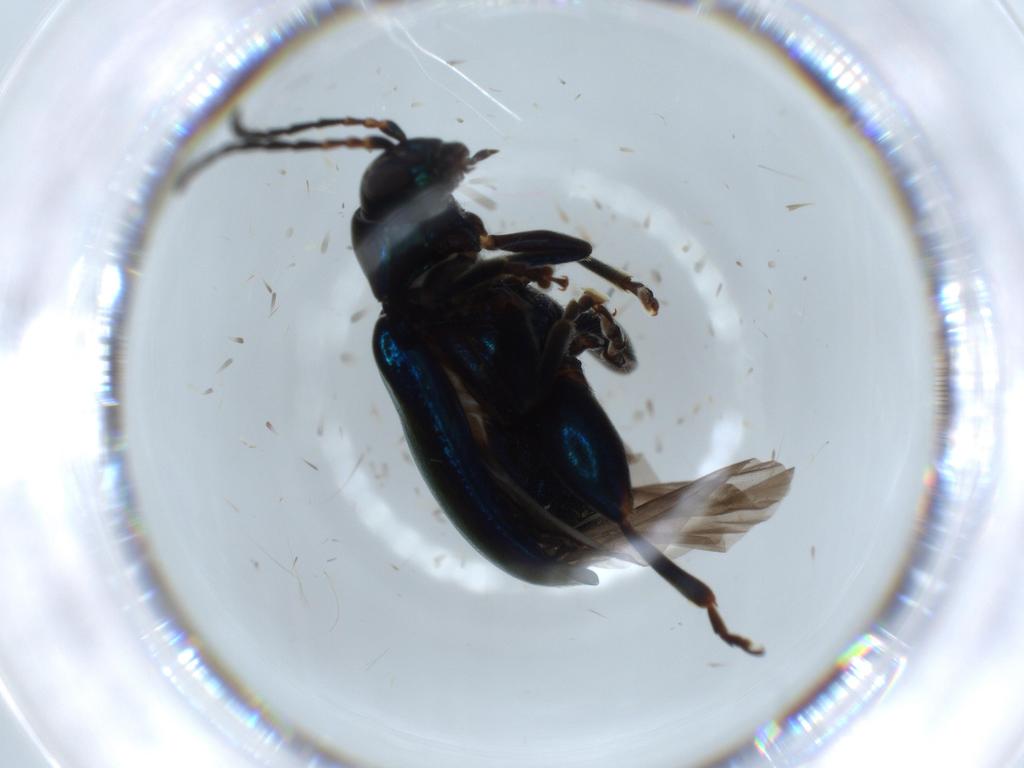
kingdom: Animalia
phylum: Arthropoda
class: Insecta
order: Coleoptera
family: Chrysomelidae
